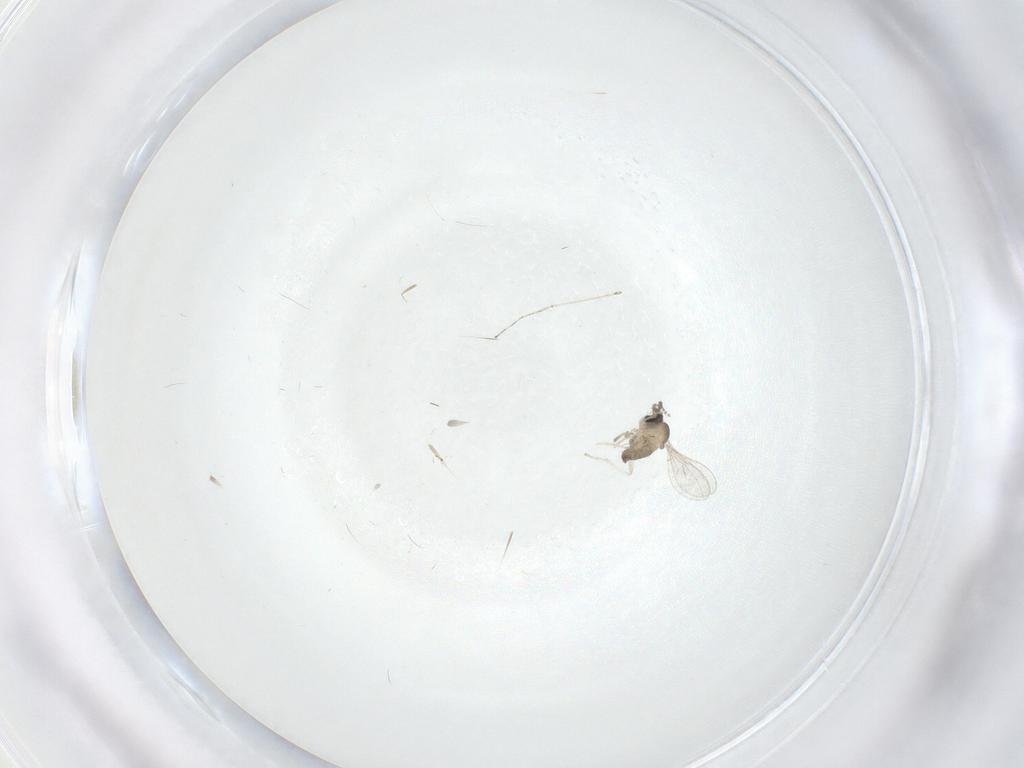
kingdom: Animalia
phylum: Arthropoda
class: Insecta
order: Diptera
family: Cecidomyiidae
